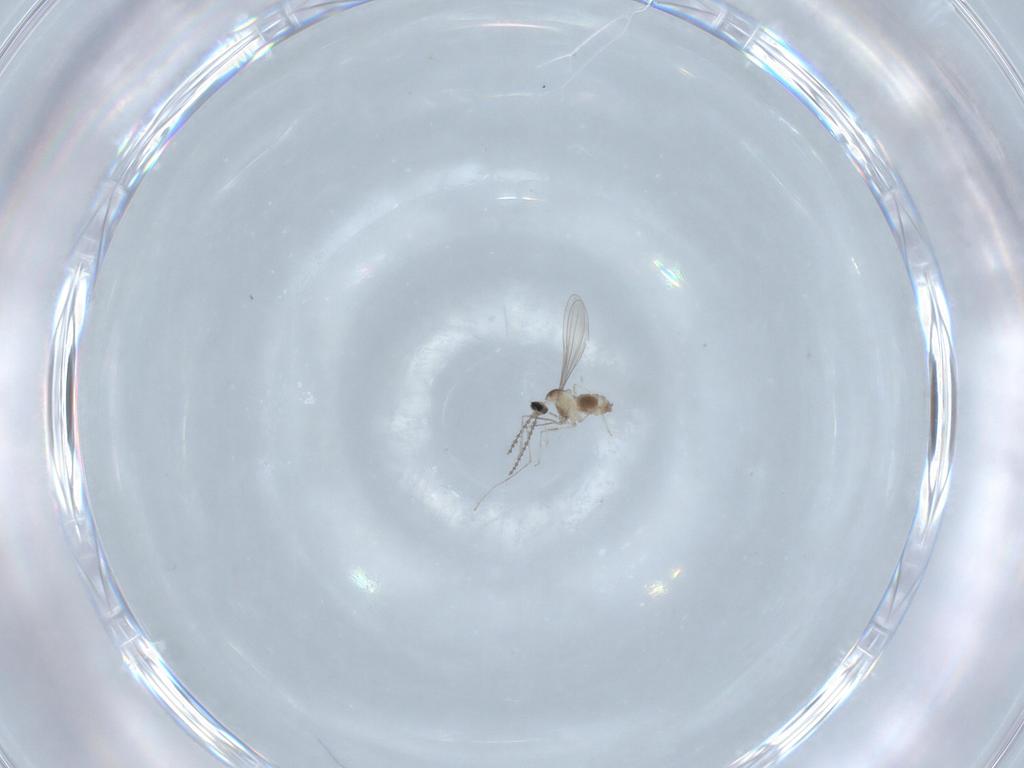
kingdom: Animalia
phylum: Arthropoda
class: Insecta
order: Diptera
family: Cecidomyiidae
